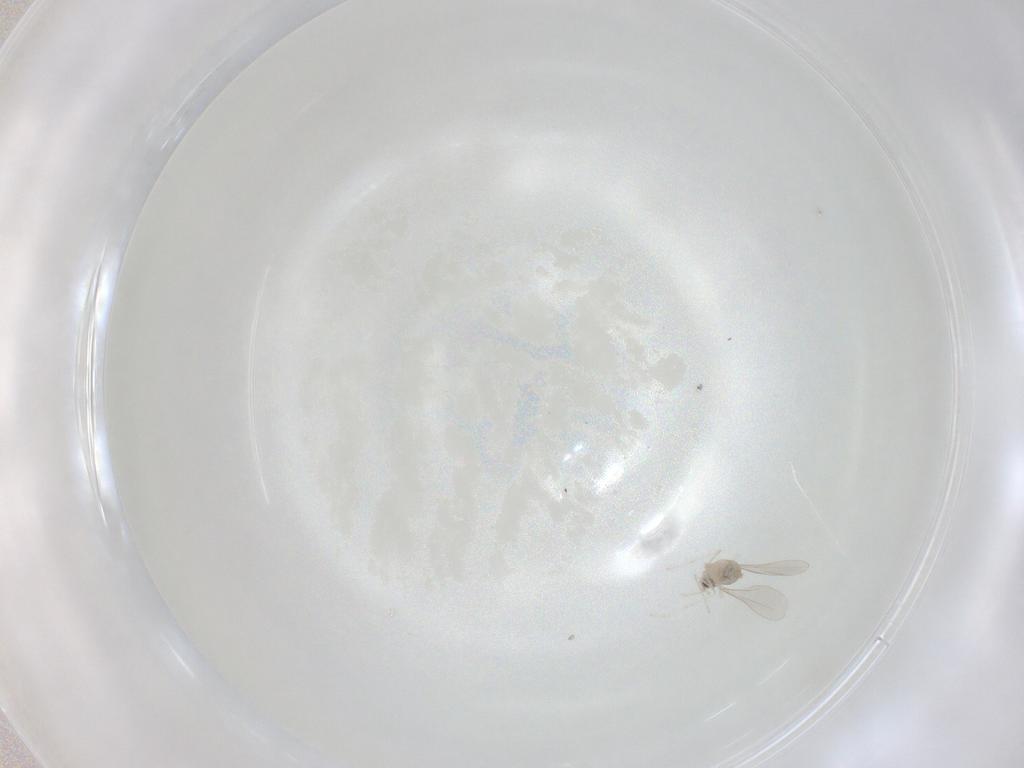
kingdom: Animalia
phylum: Arthropoda
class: Insecta
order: Diptera
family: Cecidomyiidae
